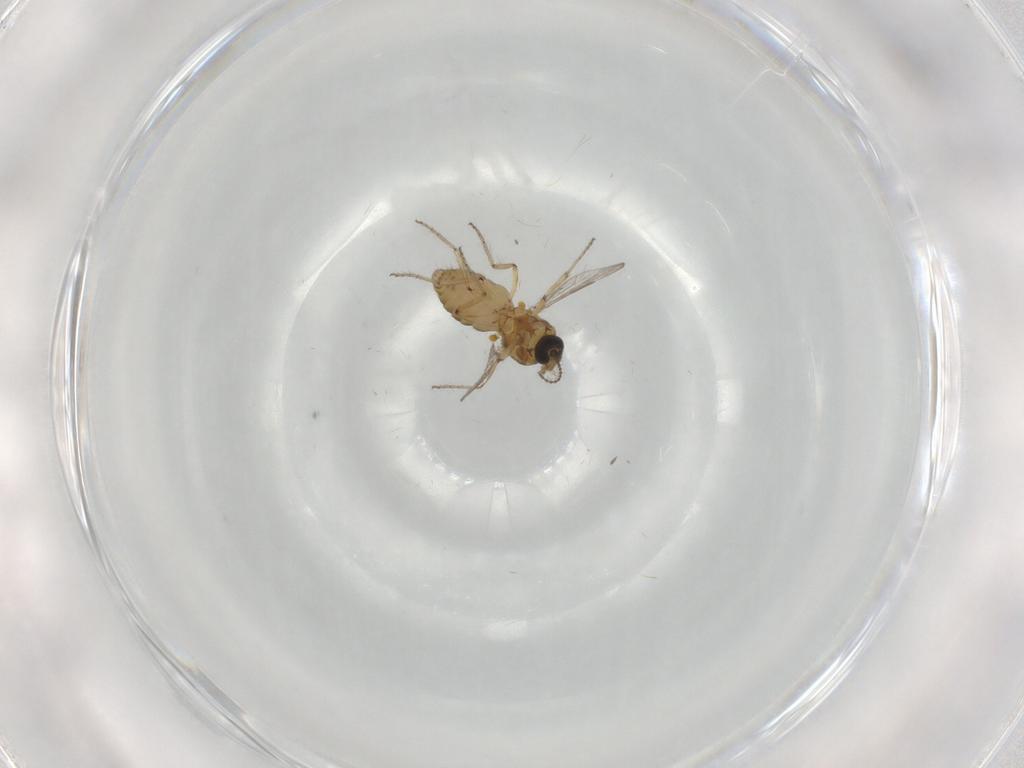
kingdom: Animalia
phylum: Arthropoda
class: Insecta
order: Diptera
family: Ceratopogonidae
